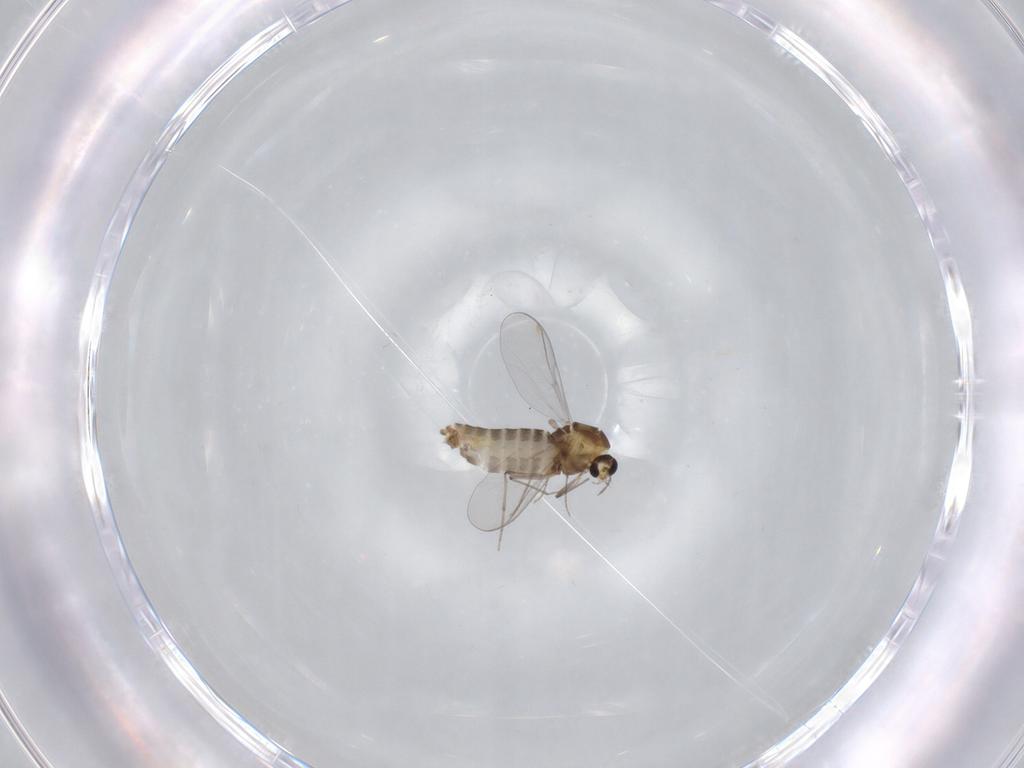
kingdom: Animalia
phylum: Arthropoda
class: Insecta
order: Diptera
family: Chironomidae
